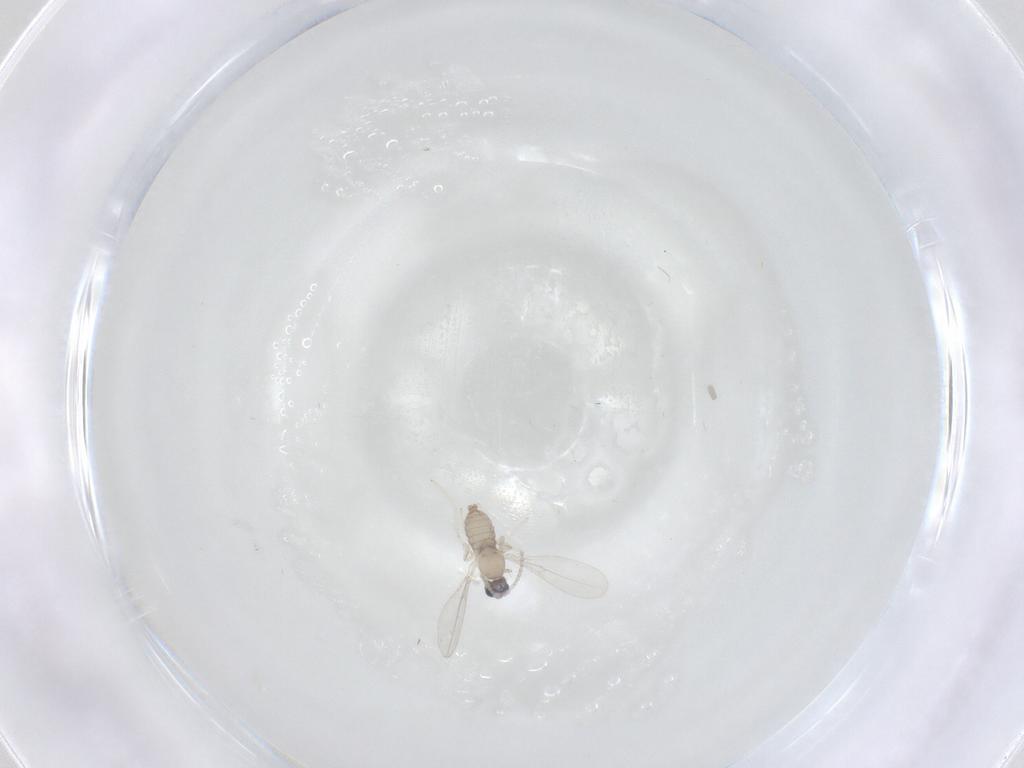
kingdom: Animalia
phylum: Arthropoda
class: Insecta
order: Diptera
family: Cecidomyiidae
